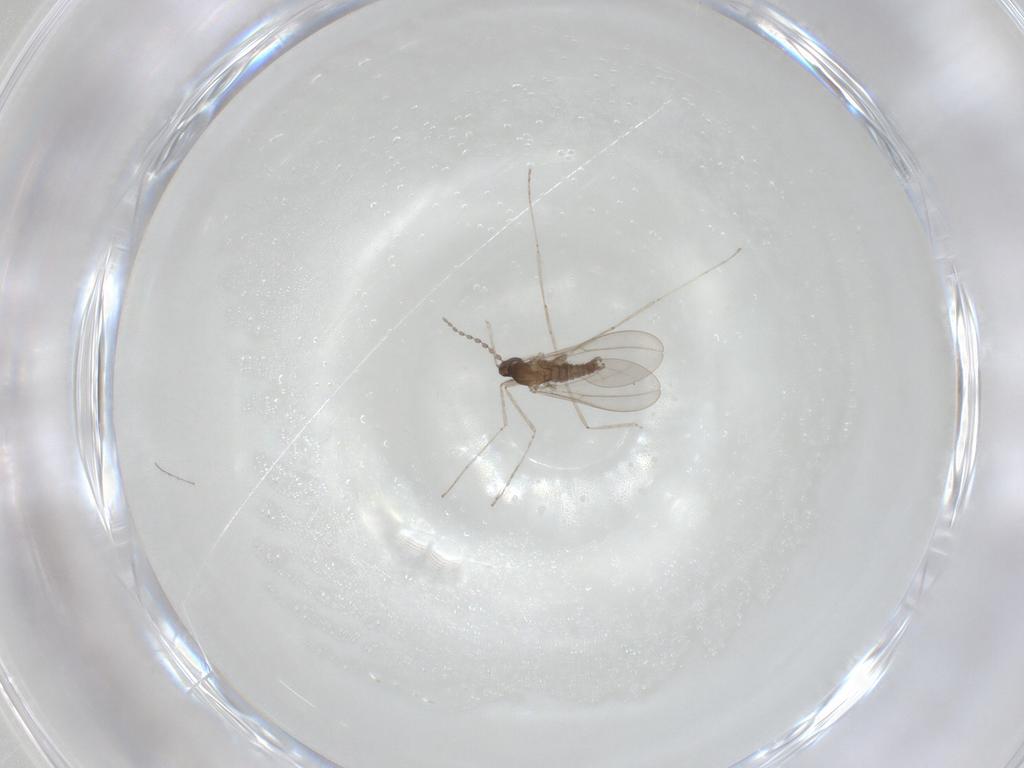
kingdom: Animalia
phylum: Arthropoda
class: Insecta
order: Diptera
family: Cecidomyiidae
